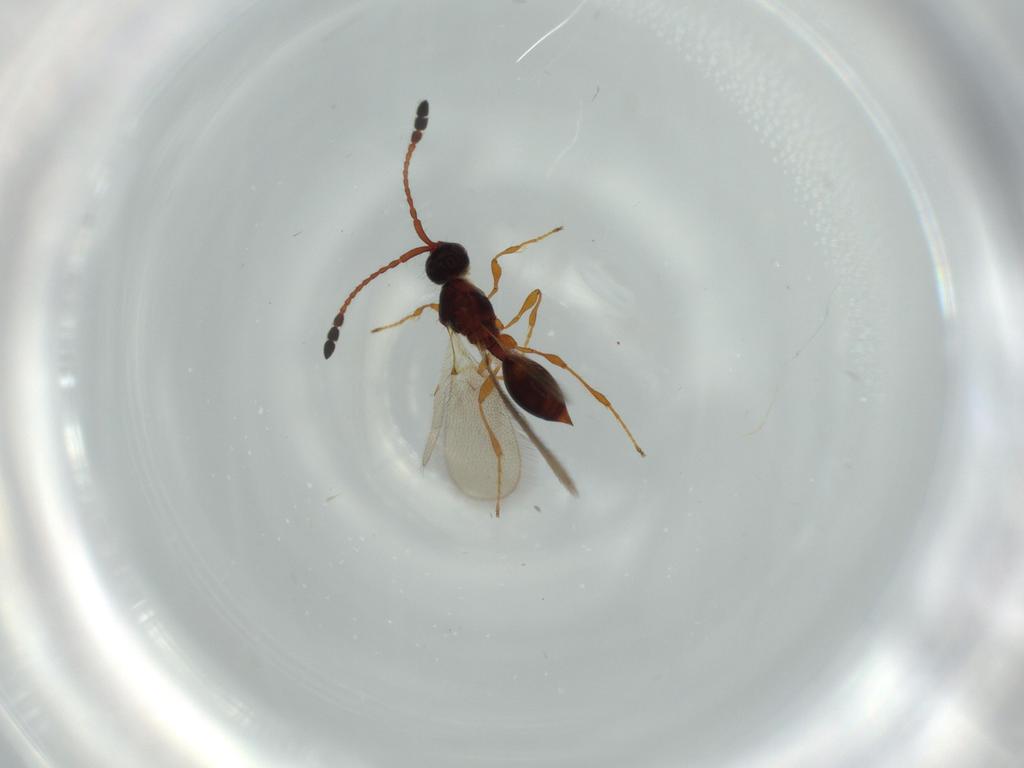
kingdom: Animalia
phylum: Arthropoda
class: Insecta
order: Hymenoptera
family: Diapriidae
